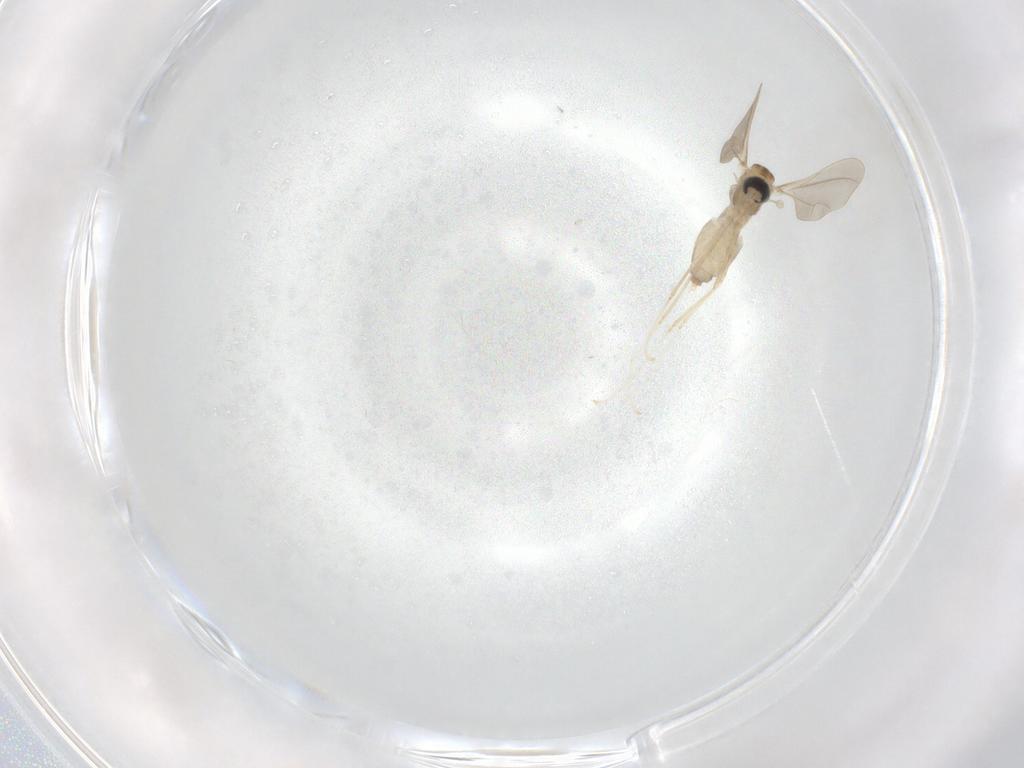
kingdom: Animalia
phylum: Arthropoda
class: Insecta
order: Diptera
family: Cecidomyiidae
